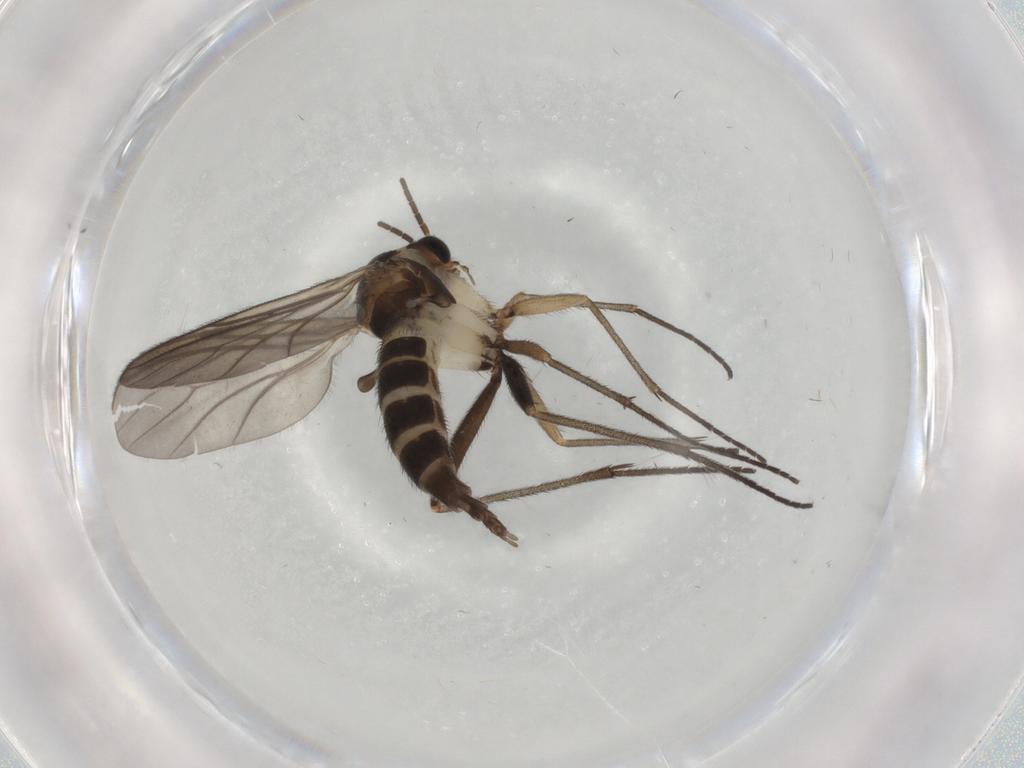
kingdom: Animalia
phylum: Arthropoda
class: Insecta
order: Diptera
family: Sciaridae
